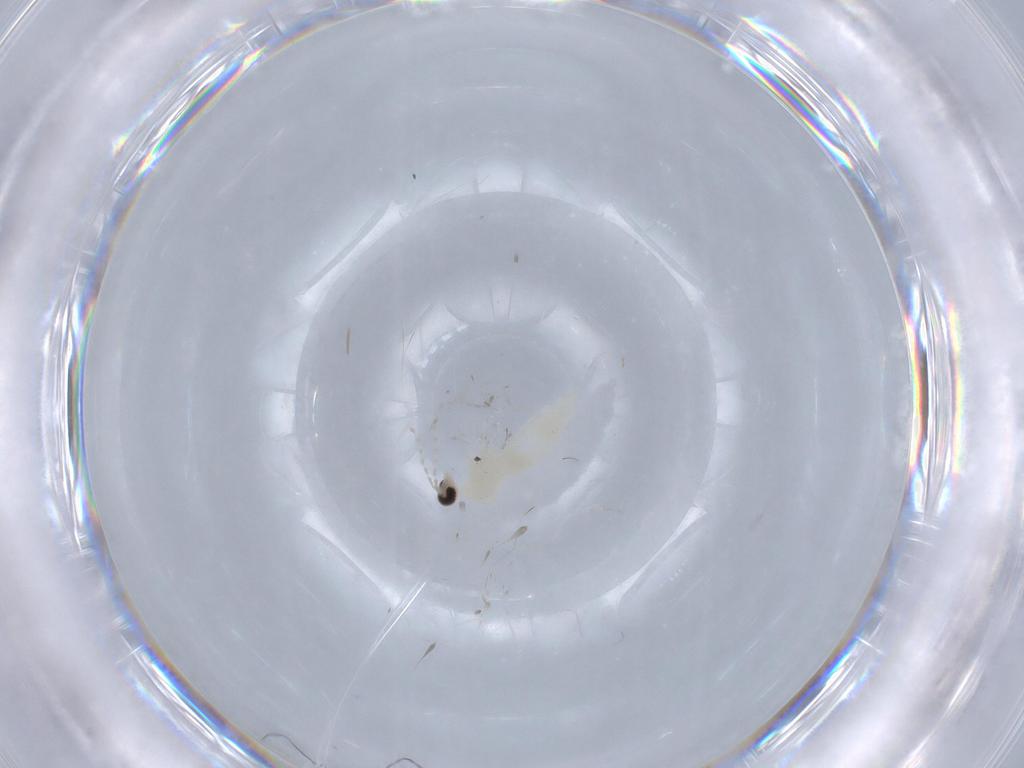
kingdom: Animalia
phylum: Arthropoda
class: Insecta
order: Diptera
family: Cecidomyiidae
